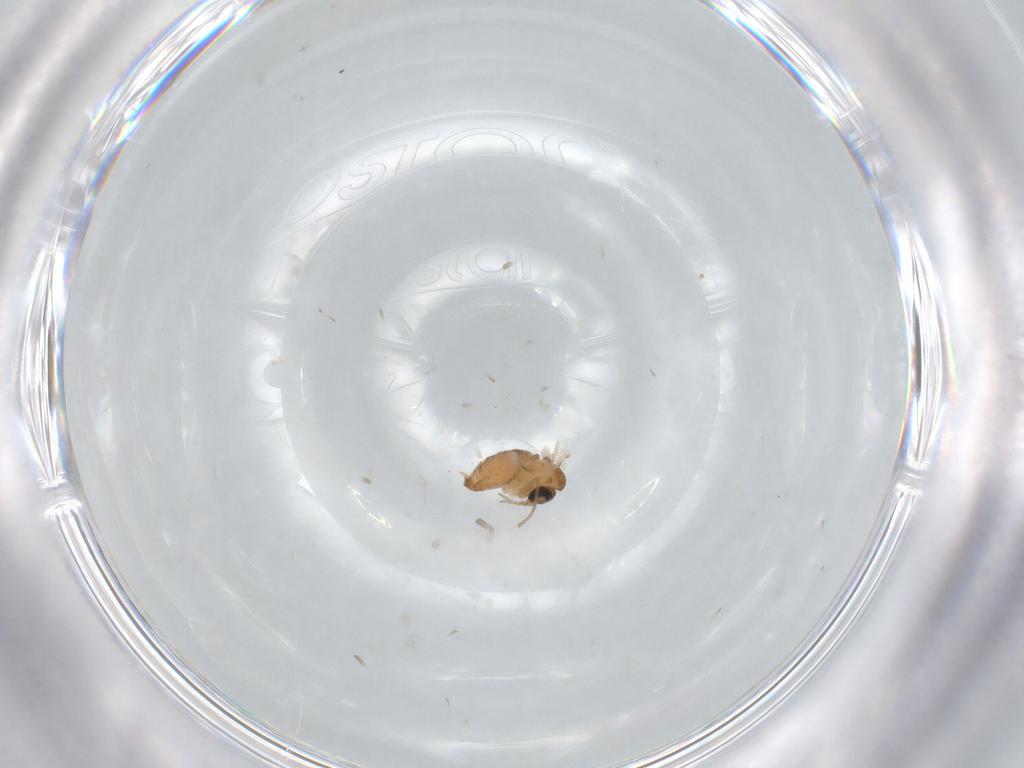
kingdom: Animalia
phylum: Arthropoda
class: Insecta
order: Diptera
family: Psychodidae
